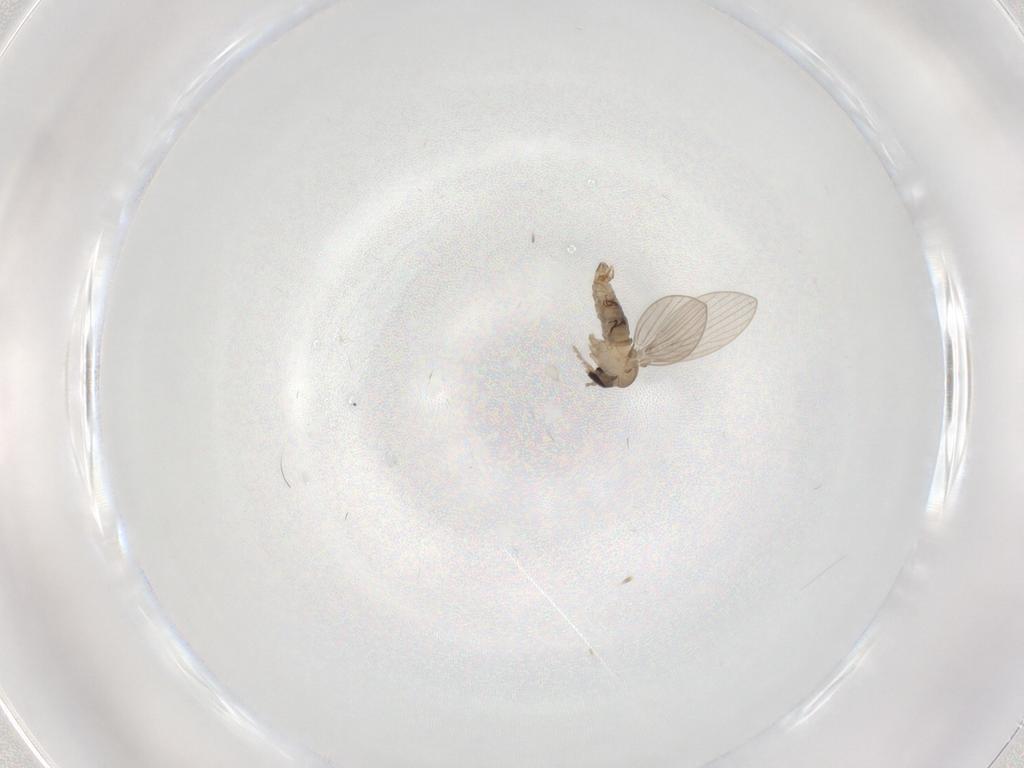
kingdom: Animalia
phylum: Arthropoda
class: Insecta
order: Diptera
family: Psychodidae
